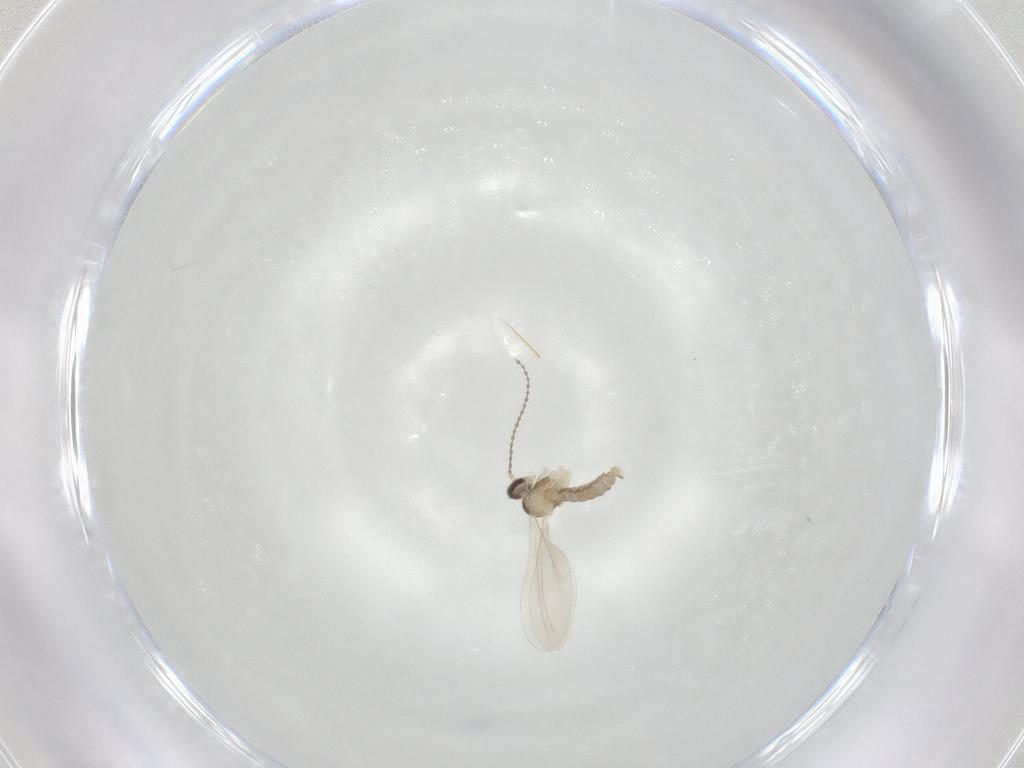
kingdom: Animalia
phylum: Arthropoda
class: Insecta
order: Diptera
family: Cecidomyiidae
